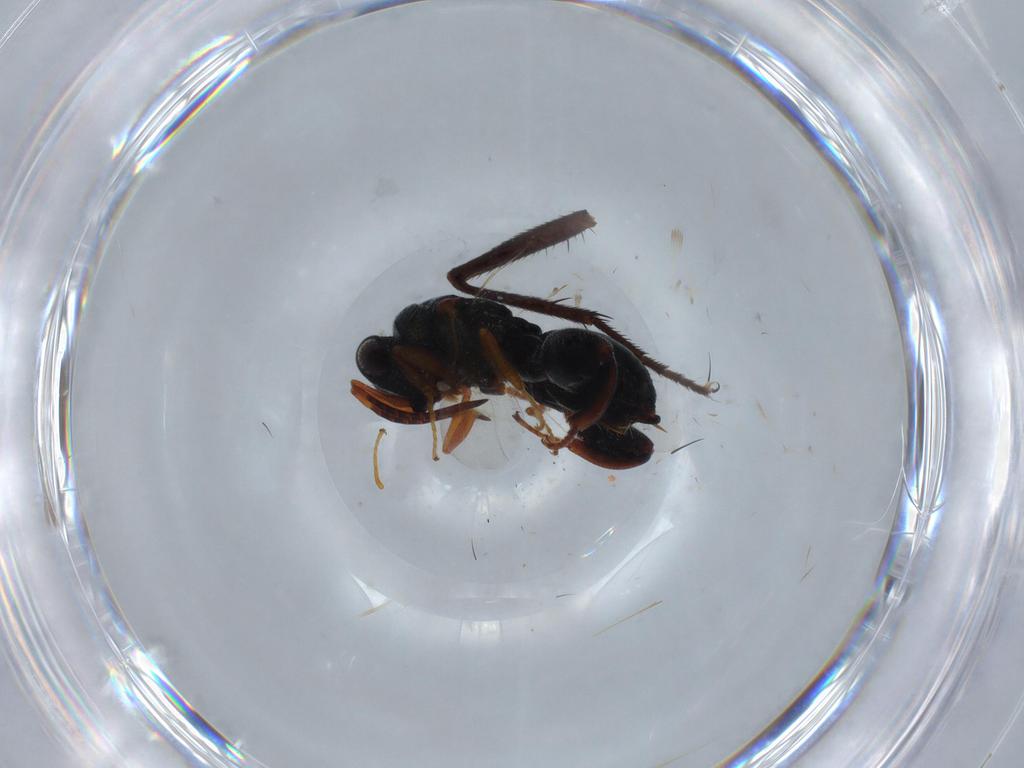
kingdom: Animalia
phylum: Arthropoda
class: Insecta
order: Hymenoptera
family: Chalcididae
